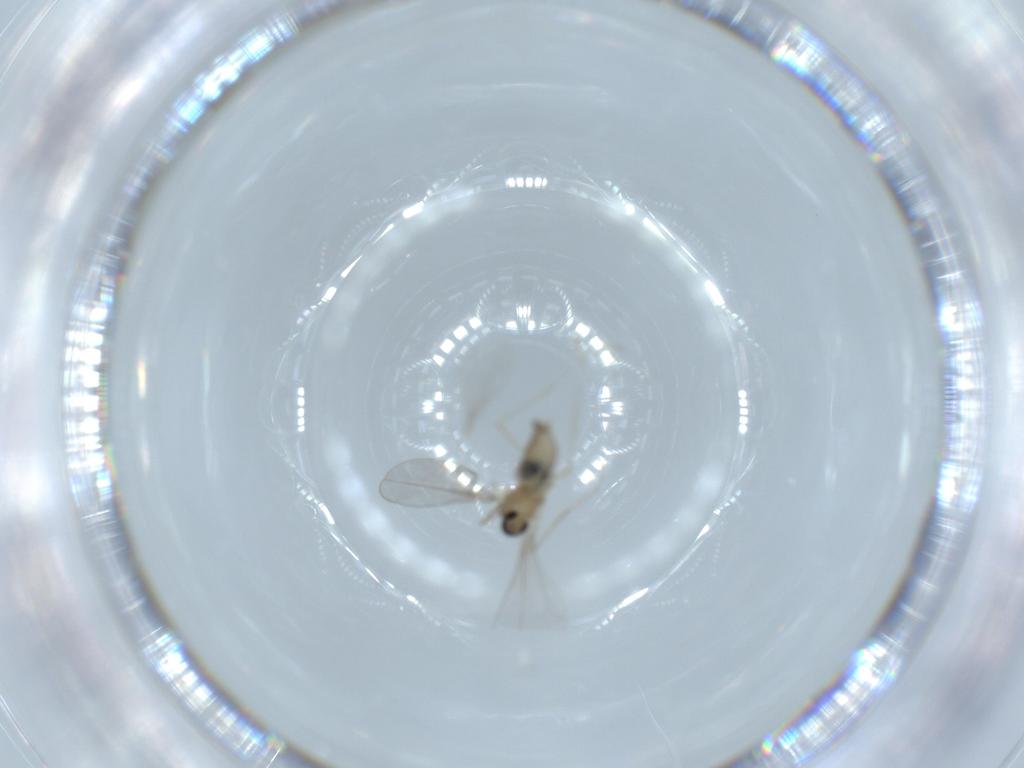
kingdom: Animalia
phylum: Arthropoda
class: Insecta
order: Diptera
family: Cecidomyiidae
